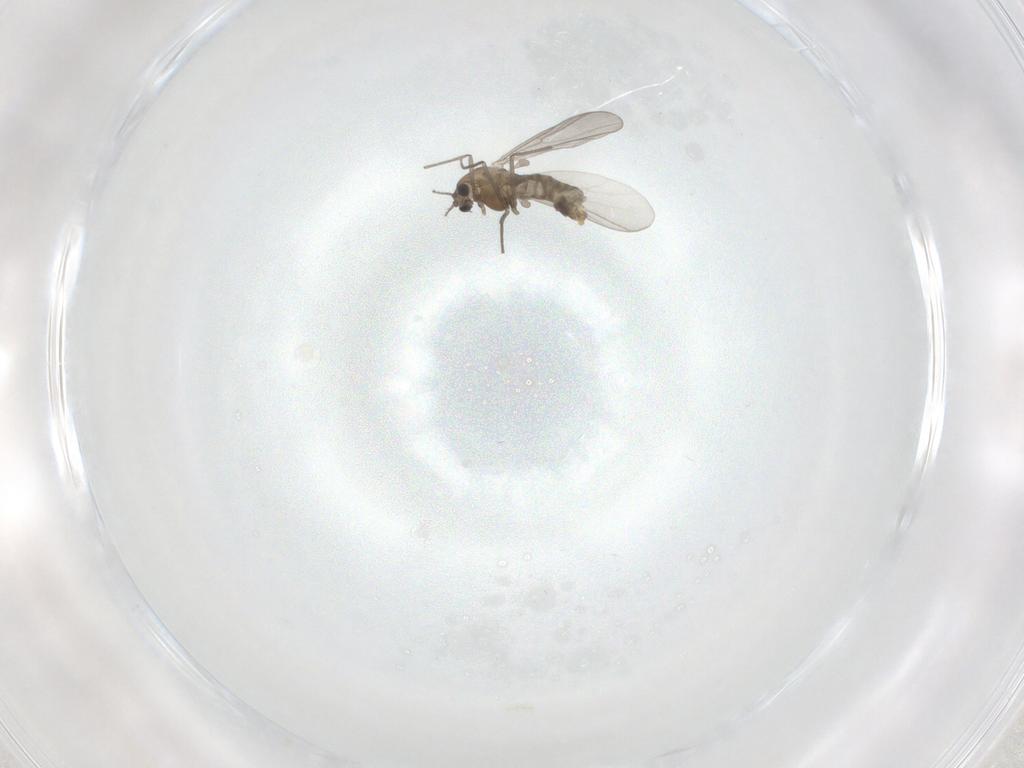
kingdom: Animalia
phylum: Arthropoda
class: Insecta
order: Diptera
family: Chironomidae
